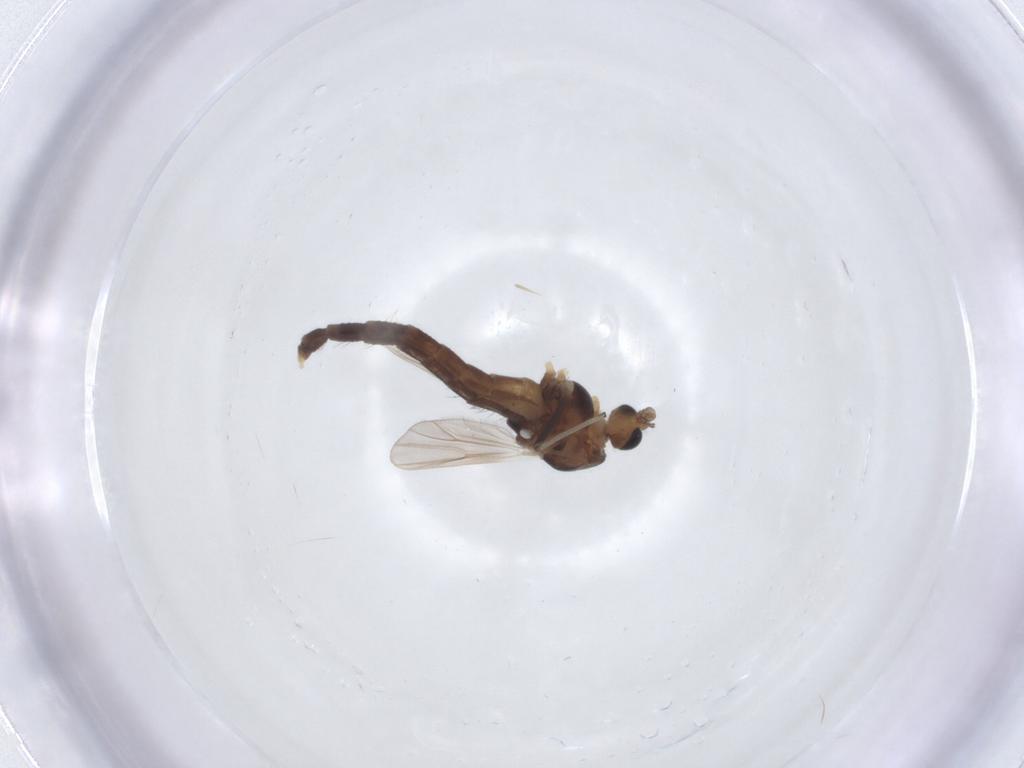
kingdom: Animalia
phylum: Arthropoda
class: Insecta
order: Diptera
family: Chironomidae
